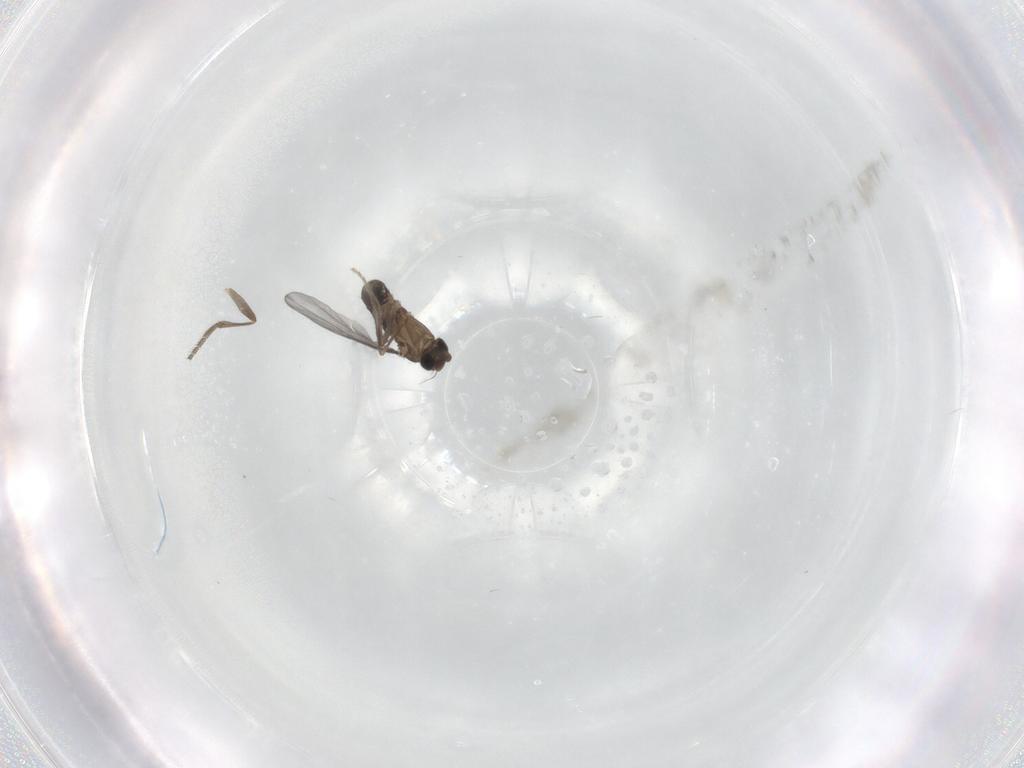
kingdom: Animalia
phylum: Arthropoda
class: Insecta
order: Diptera
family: Phoridae
